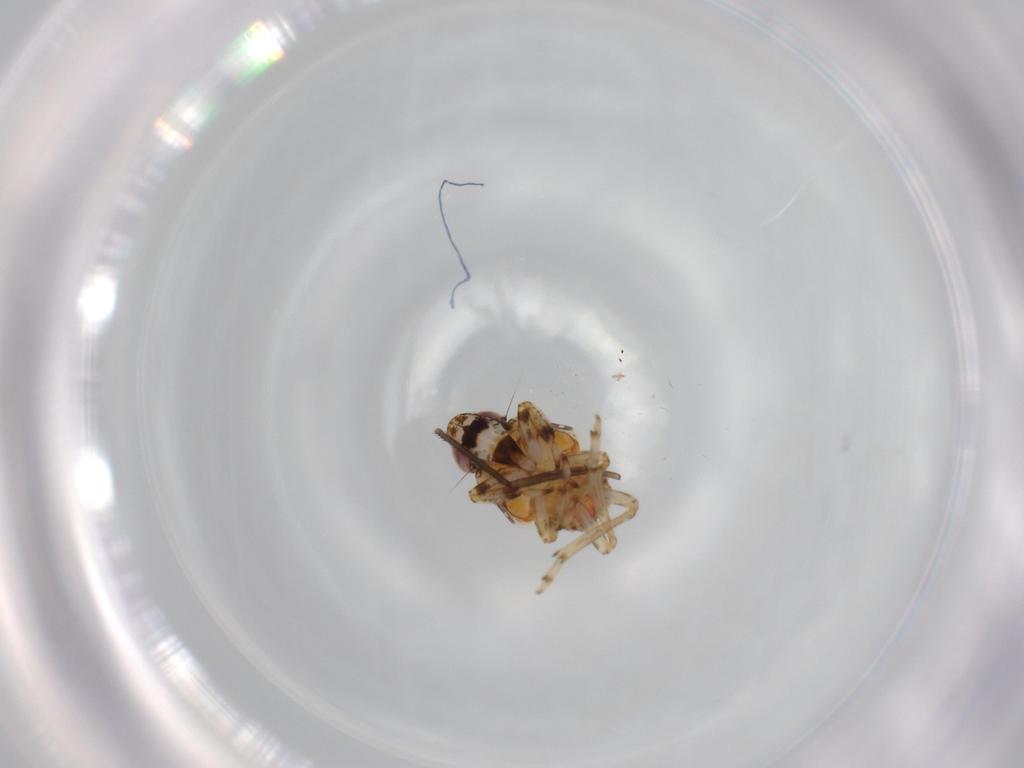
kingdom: Animalia
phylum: Arthropoda
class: Insecta
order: Hemiptera
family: Issidae
